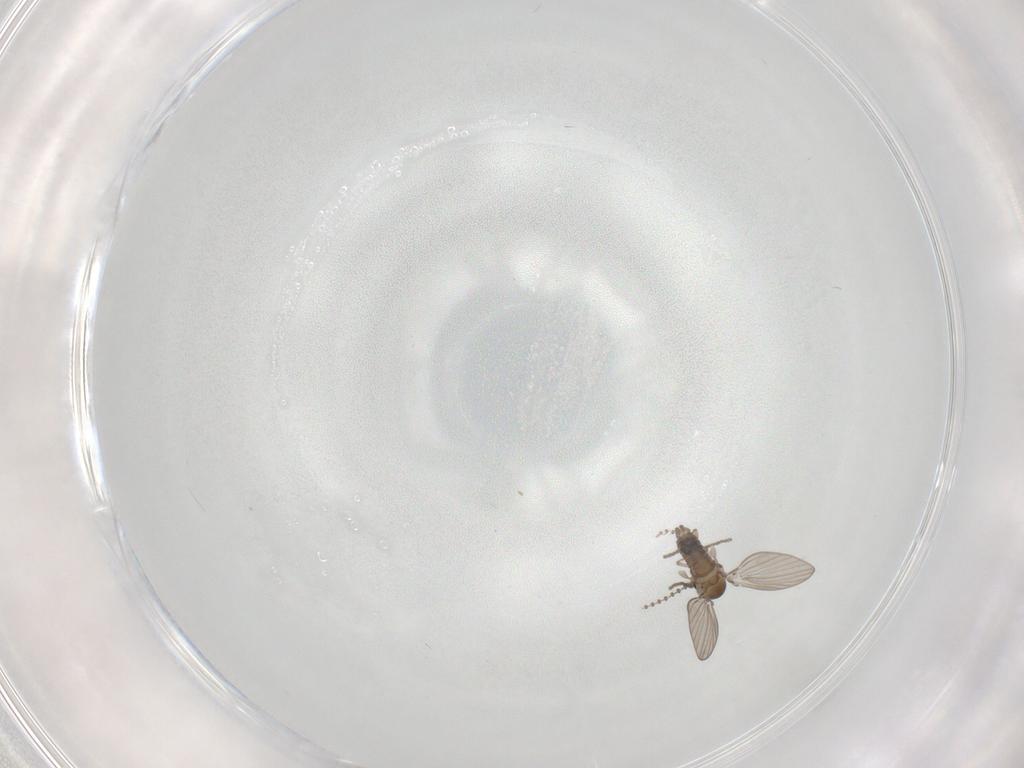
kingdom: Animalia
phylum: Arthropoda
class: Insecta
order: Diptera
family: Psychodidae
